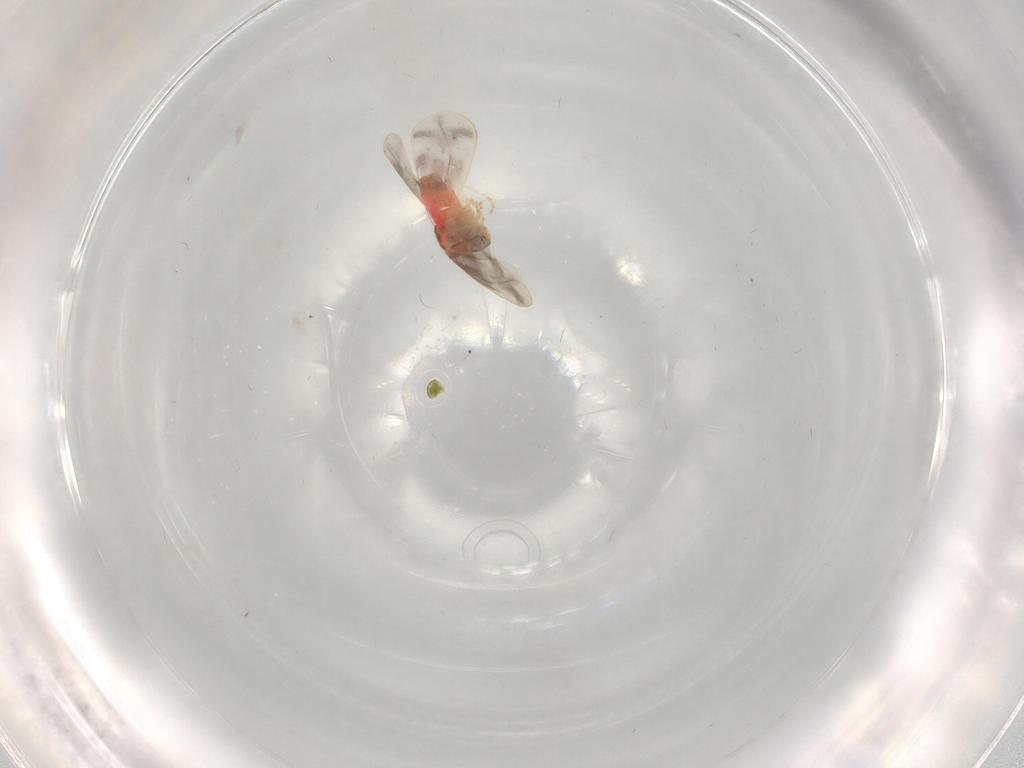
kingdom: Animalia
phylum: Arthropoda
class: Insecta
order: Hemiptera
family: Aleyrodidae
